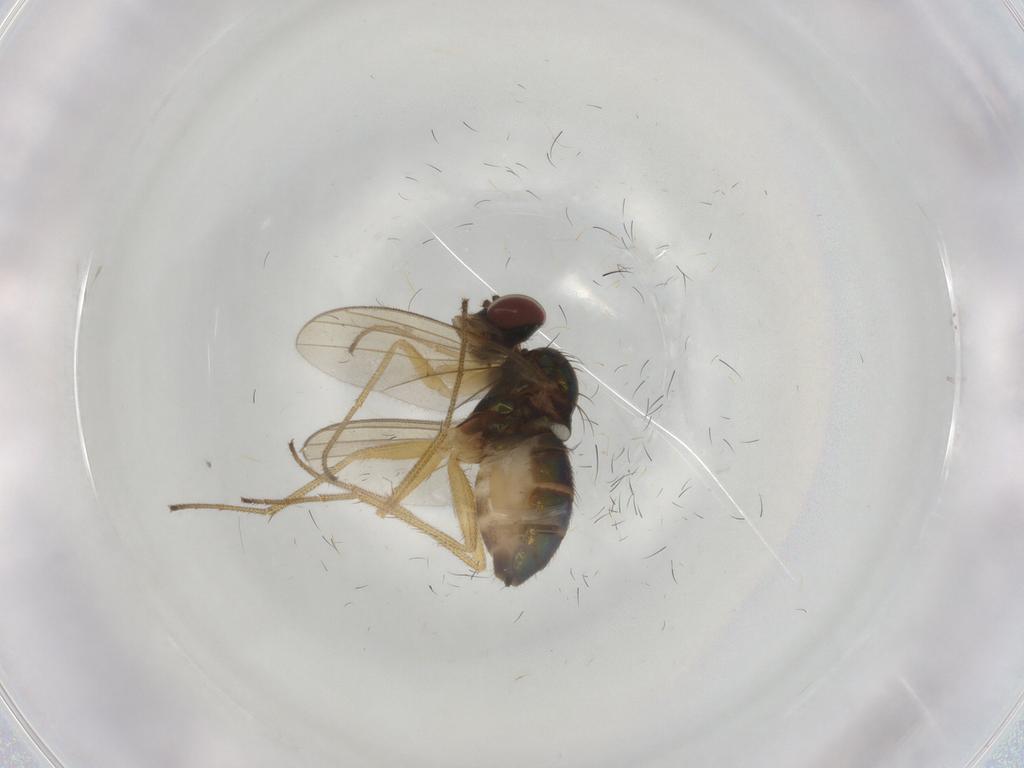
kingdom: Animalia
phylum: Arthropoda
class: Insecta
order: Diptera
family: Dolichopodidae
